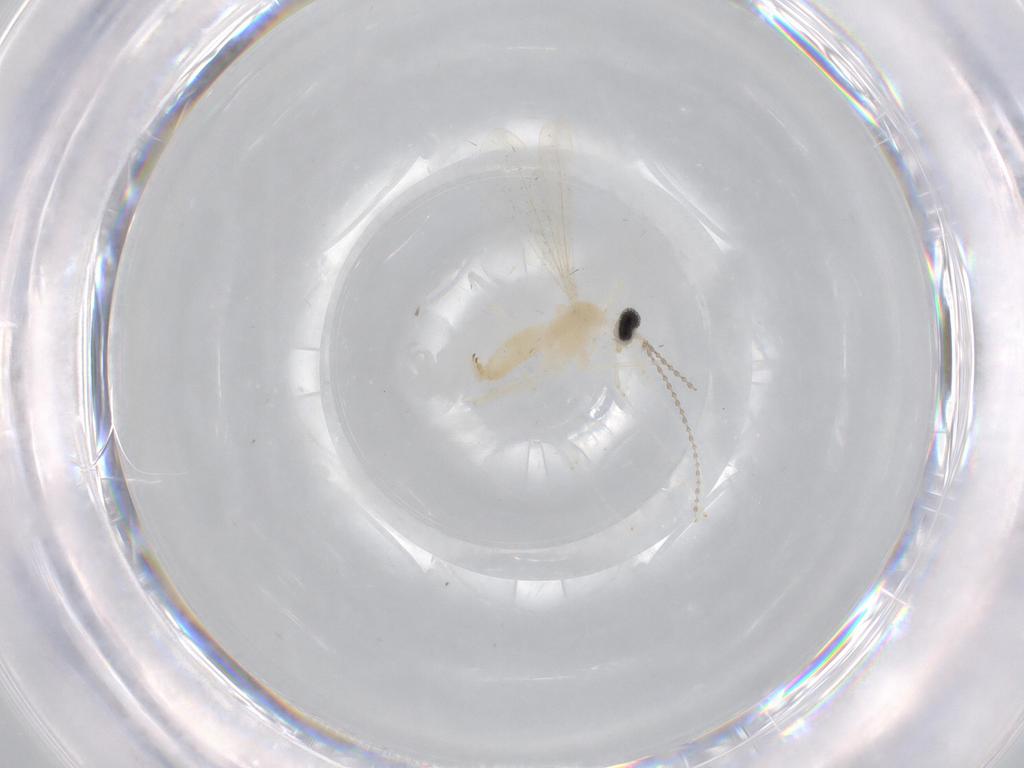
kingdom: Animalia
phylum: Arthropoda
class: Insecta
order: Diptera
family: Cecidomyiidae
